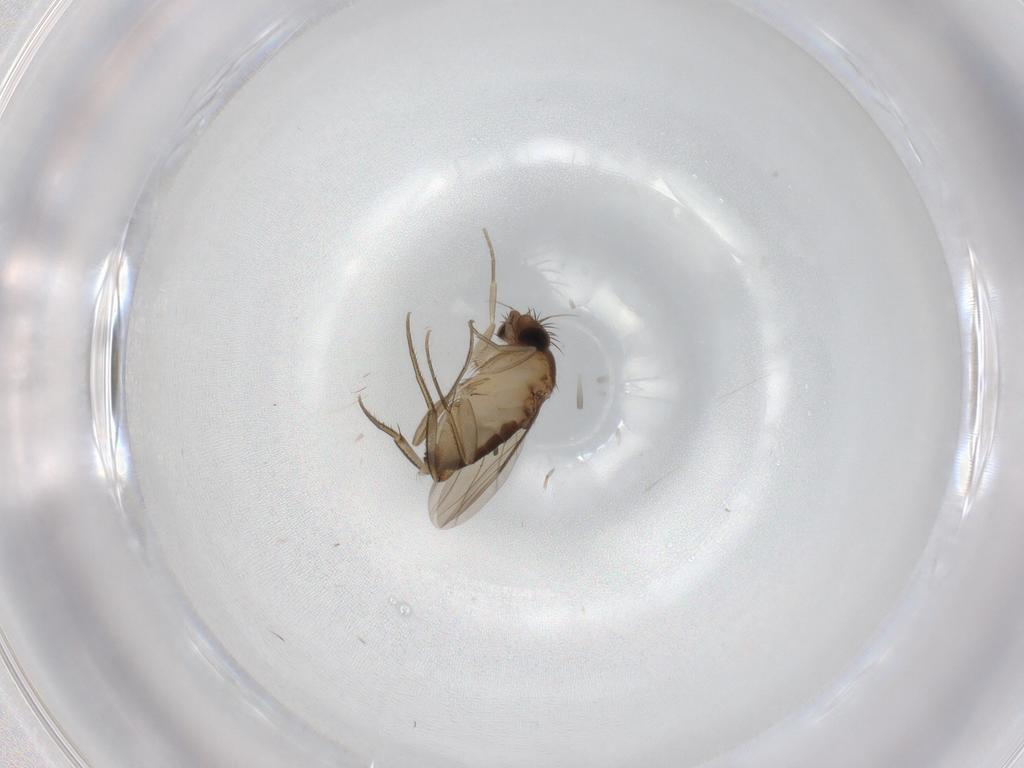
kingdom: Animalia
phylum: Arthropoda
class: Insecta
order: Diptera
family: Phoridae
